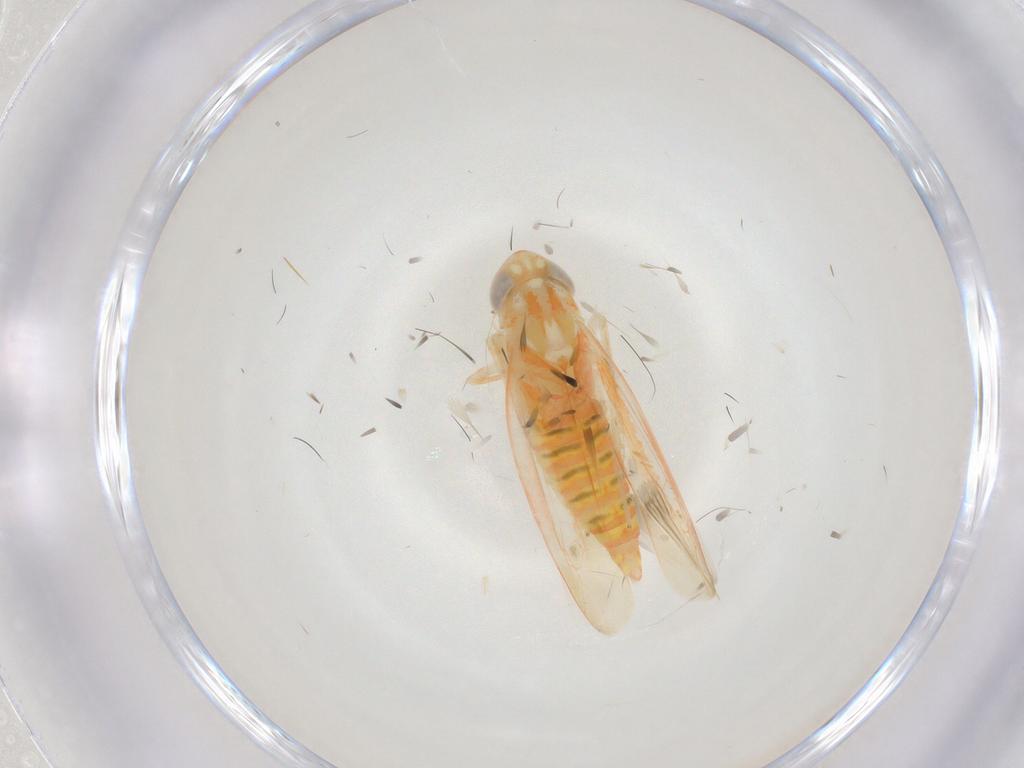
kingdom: Animalia
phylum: Arthropoda
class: Insecta
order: Hemiptera
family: Cicadellidae
